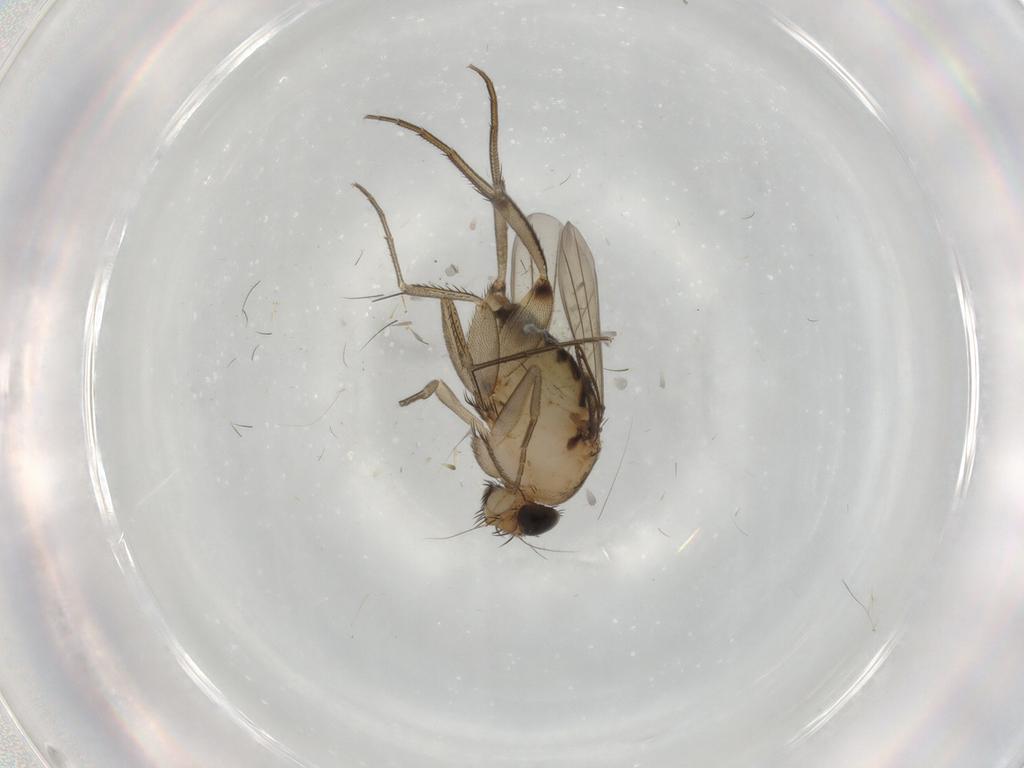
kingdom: Animalia
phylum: Arthropoda
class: Insecta
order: Diptera
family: Phoridae
